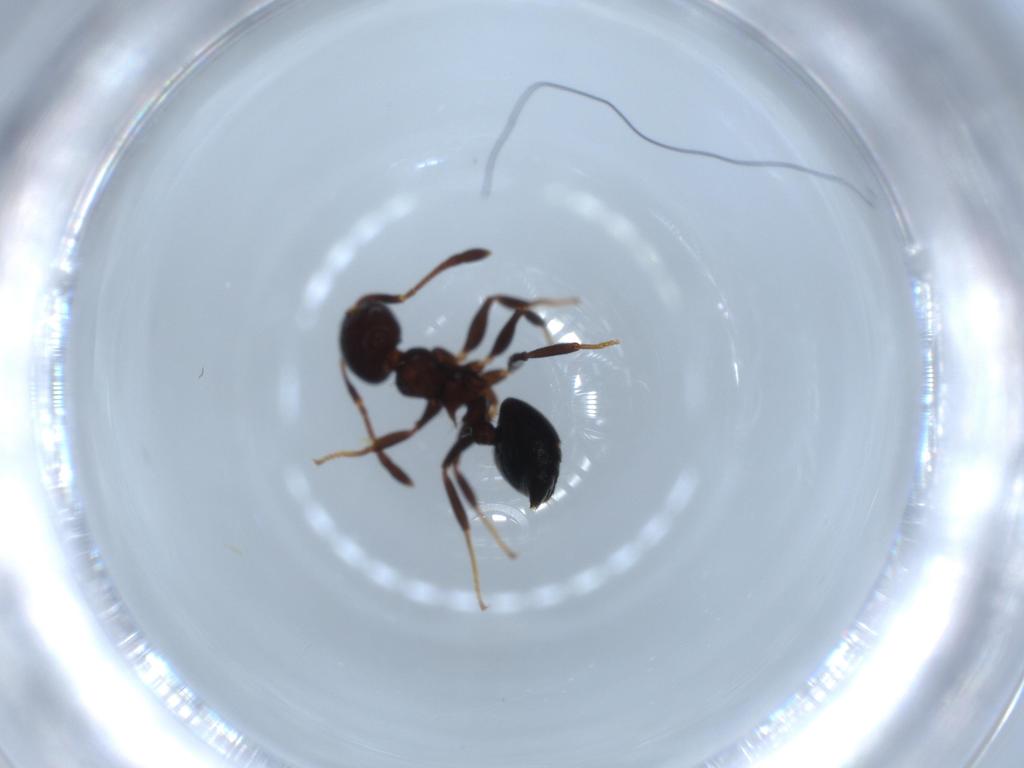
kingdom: Animalia
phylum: Arthropoda
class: Insecta
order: Hymenoptera
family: Formicidae
